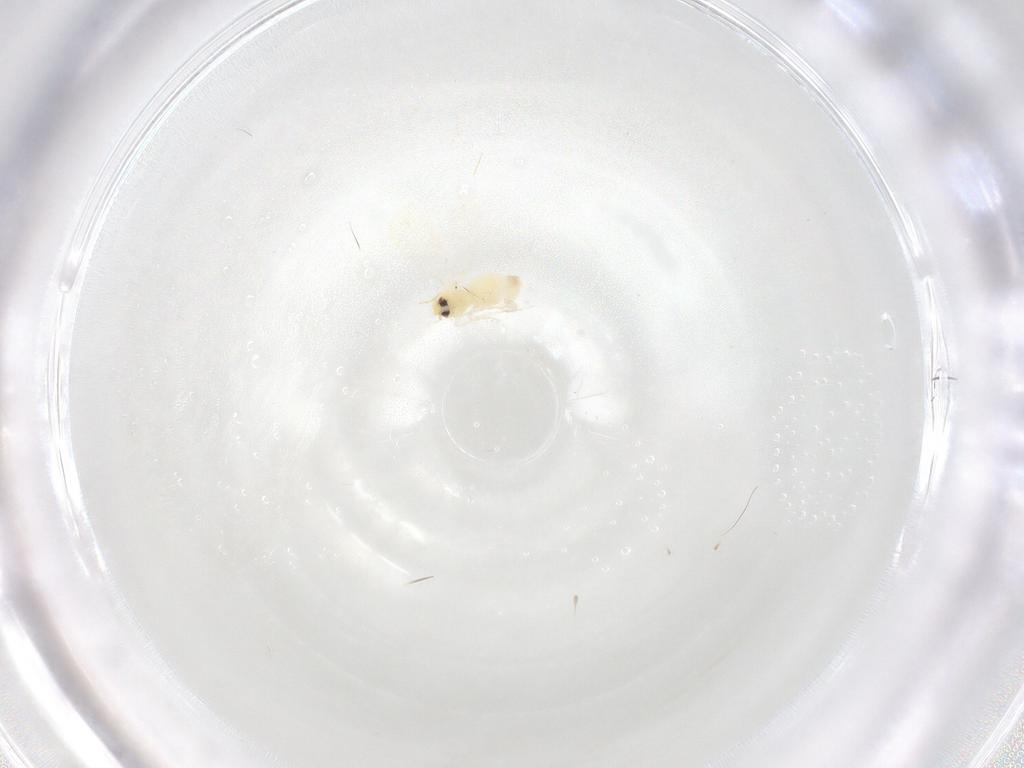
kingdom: Animalia
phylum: Arthropoda
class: Insecta
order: Hemiptera
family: Aleyrodidae
